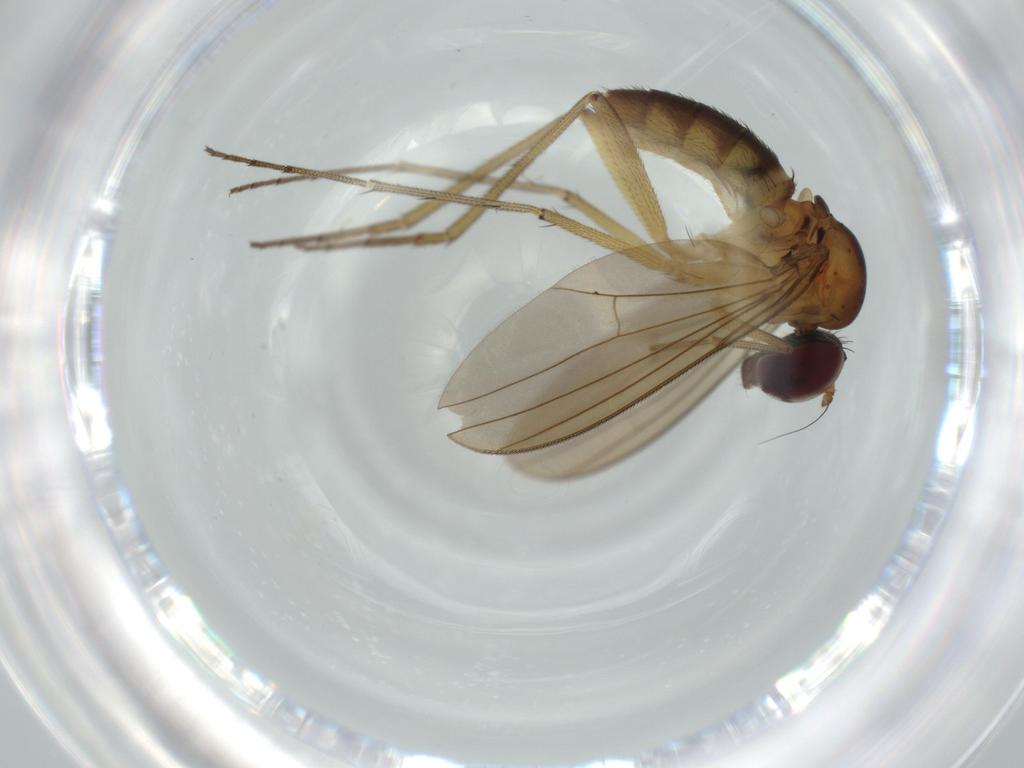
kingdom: Animalia
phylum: Arthropoda
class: Insecta
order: Diptera
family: Dolichopodidae
